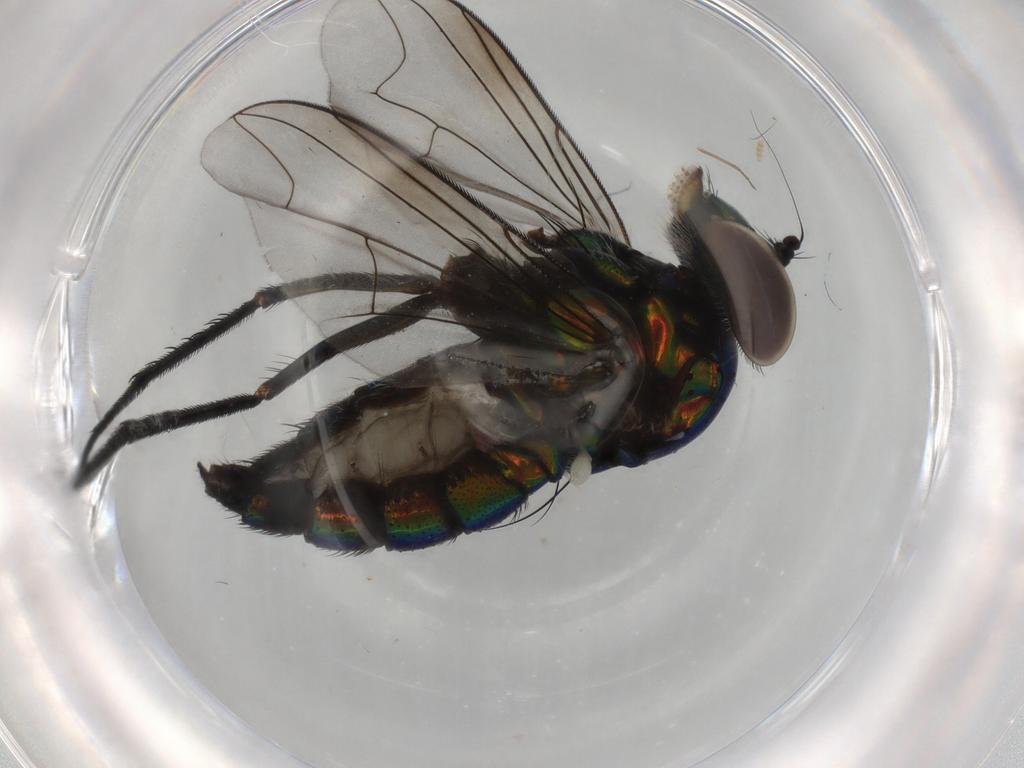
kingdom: Animalia
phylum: Arthropoda
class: Insecta
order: Diptera
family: Dolichopodidae
